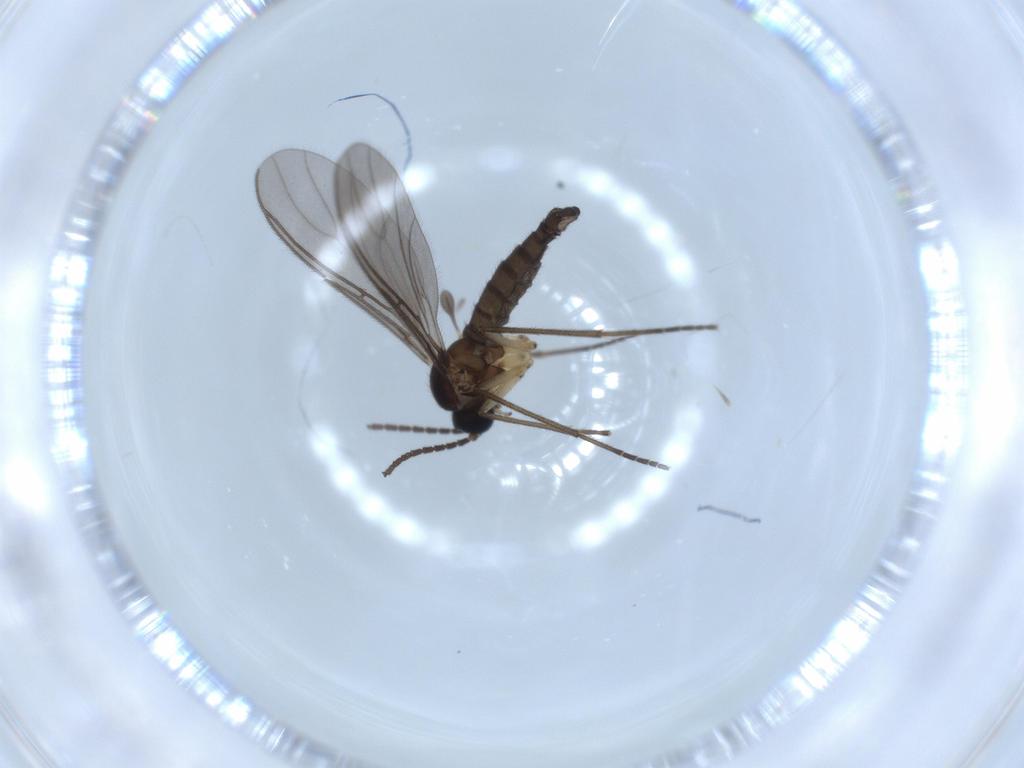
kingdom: Animalia
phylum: Arthropoda
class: Insecta
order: Diptera
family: Sciaridae
